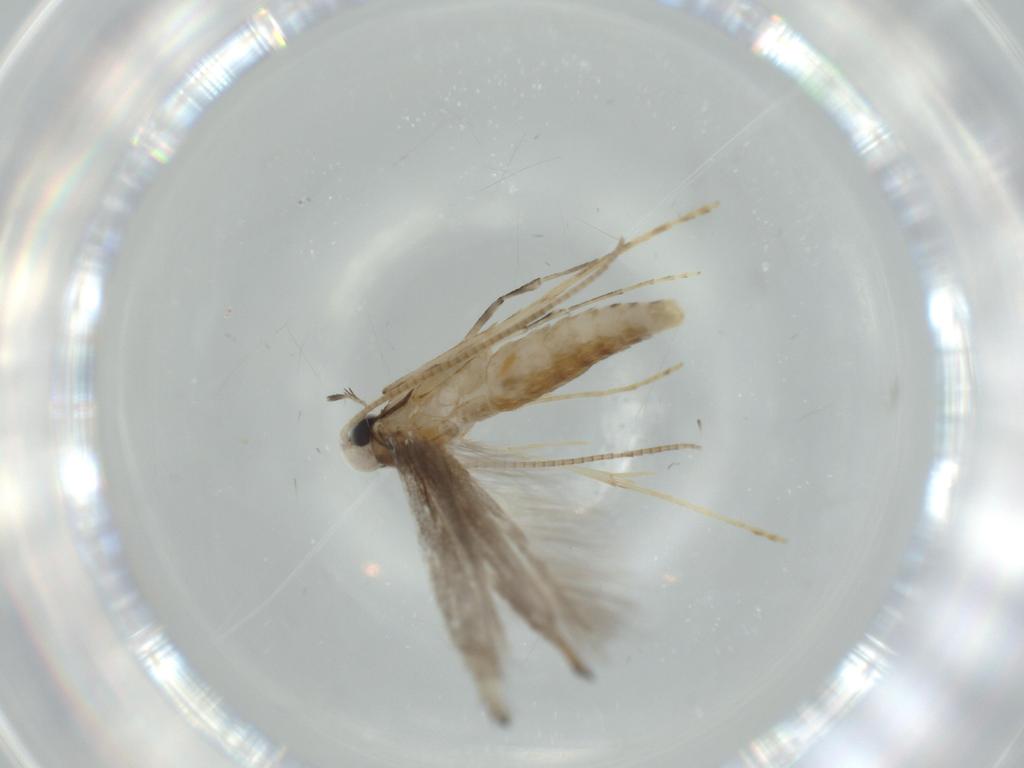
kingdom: Animalia
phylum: Arthropoda
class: Insecta
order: Lepidoptera
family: Gracillariidae
